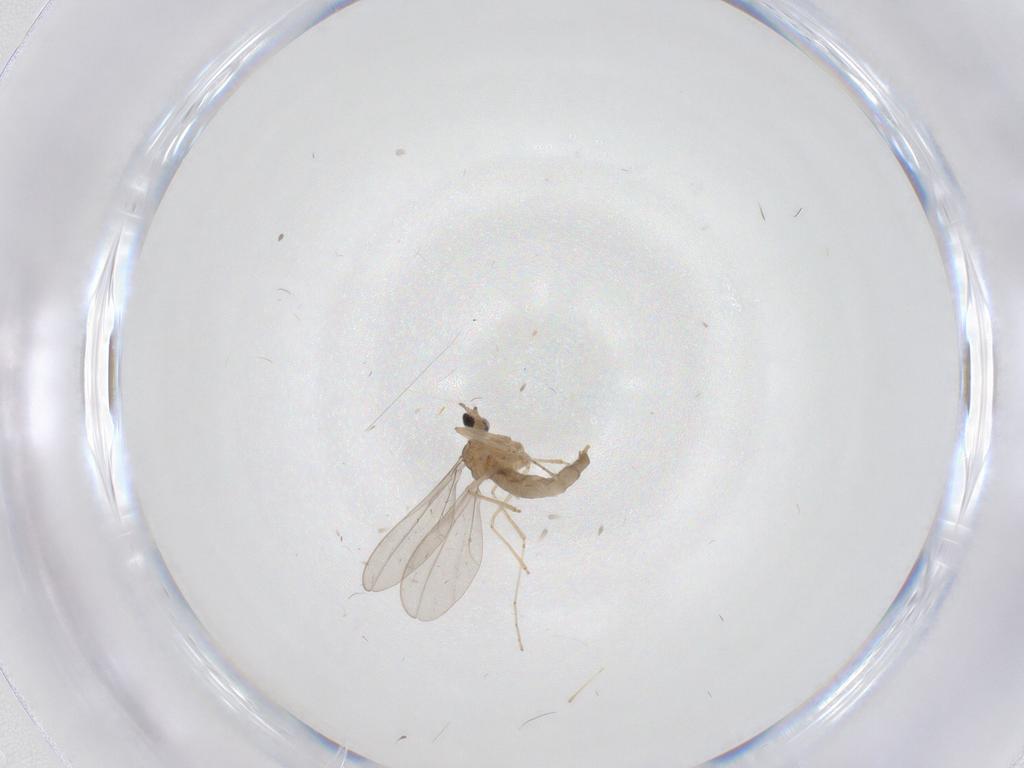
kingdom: Animalia
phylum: Arthropoda
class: Insecta
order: Diptera
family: Cecidomyiidae
